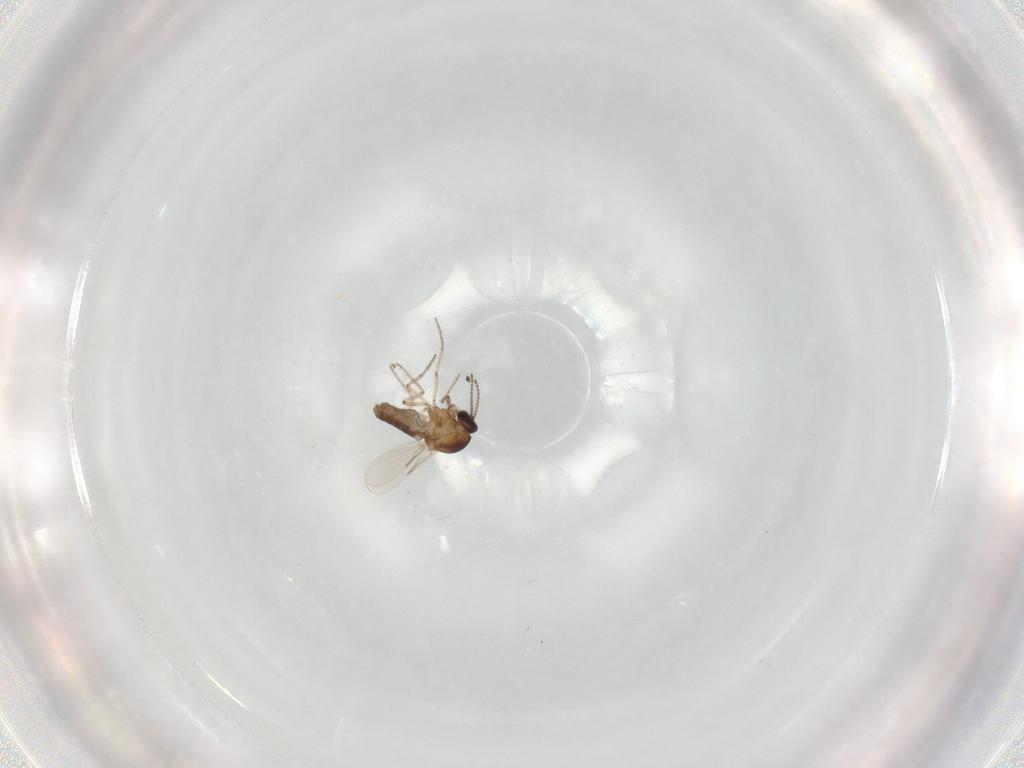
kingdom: Animalia
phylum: Arthropoda
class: Insecta
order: Diptera
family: Ceratopogonidae
